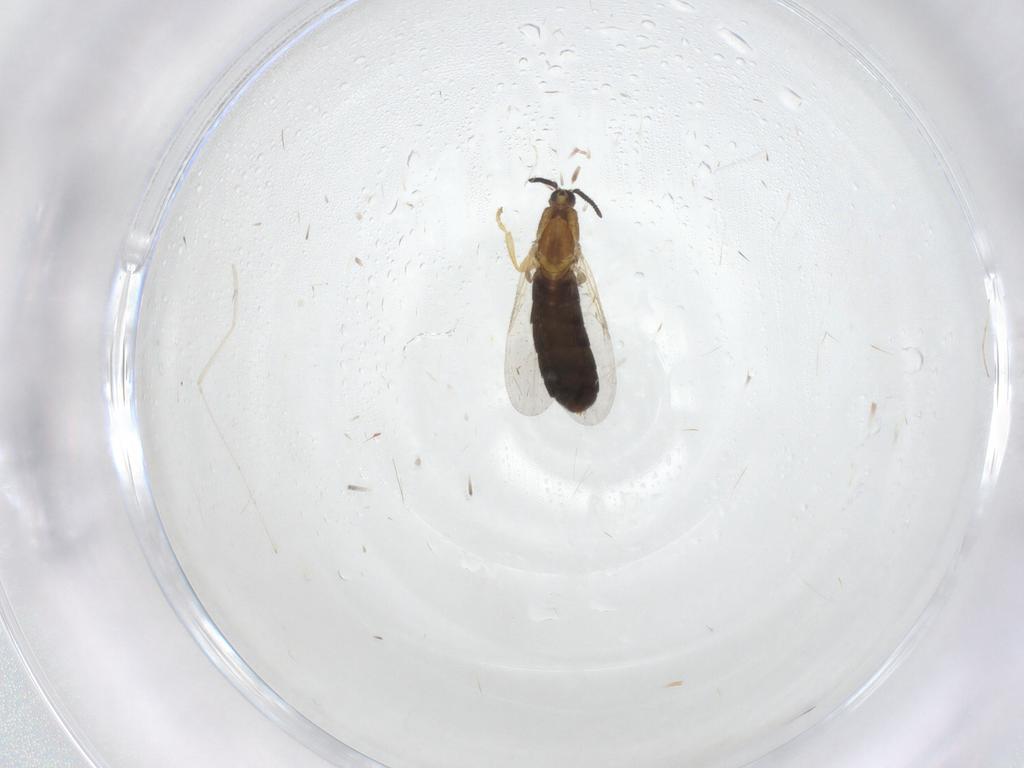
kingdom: Animalia
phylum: Arthropoda
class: Insecta
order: Diptera
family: Scatopsidae
